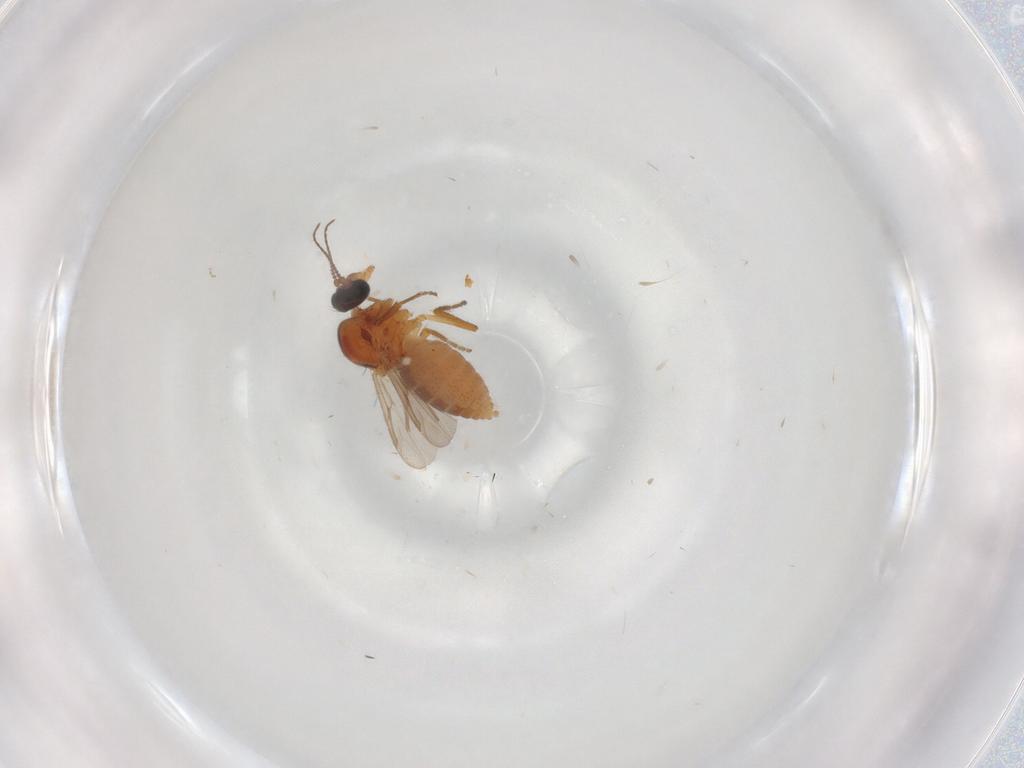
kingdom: Animalia
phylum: Arthropoda
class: Insecta
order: Diptera
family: Chironomidae
